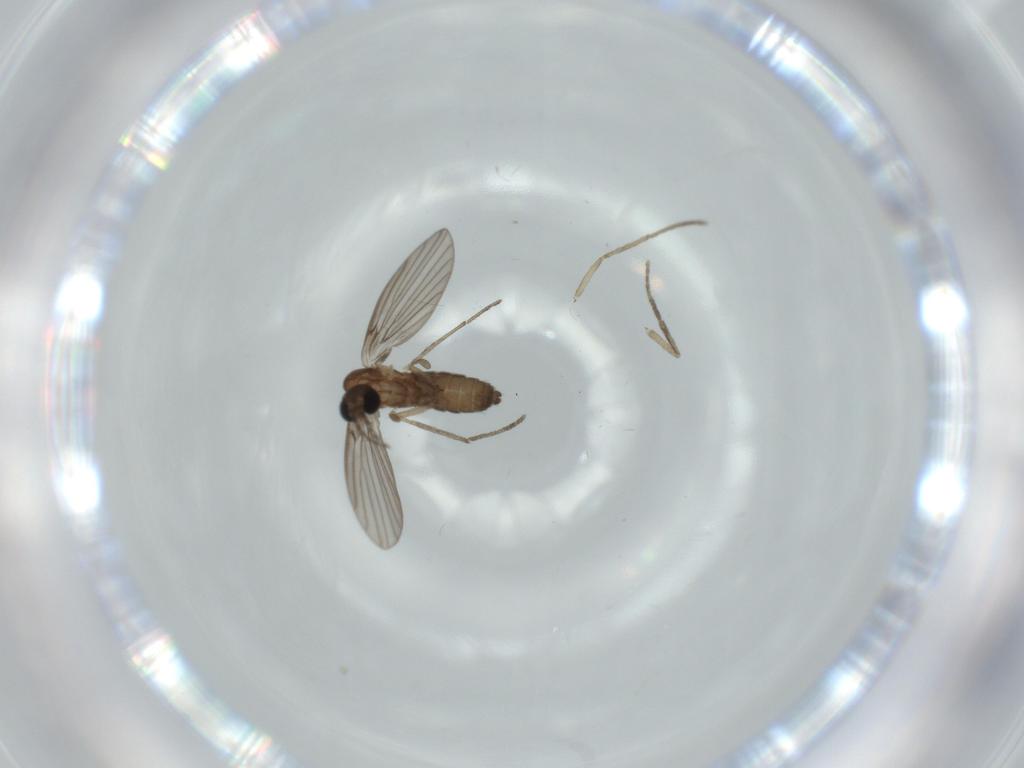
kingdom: Animalia
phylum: Arthropoda
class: Insecta
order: Diptera
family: Psychodidae
